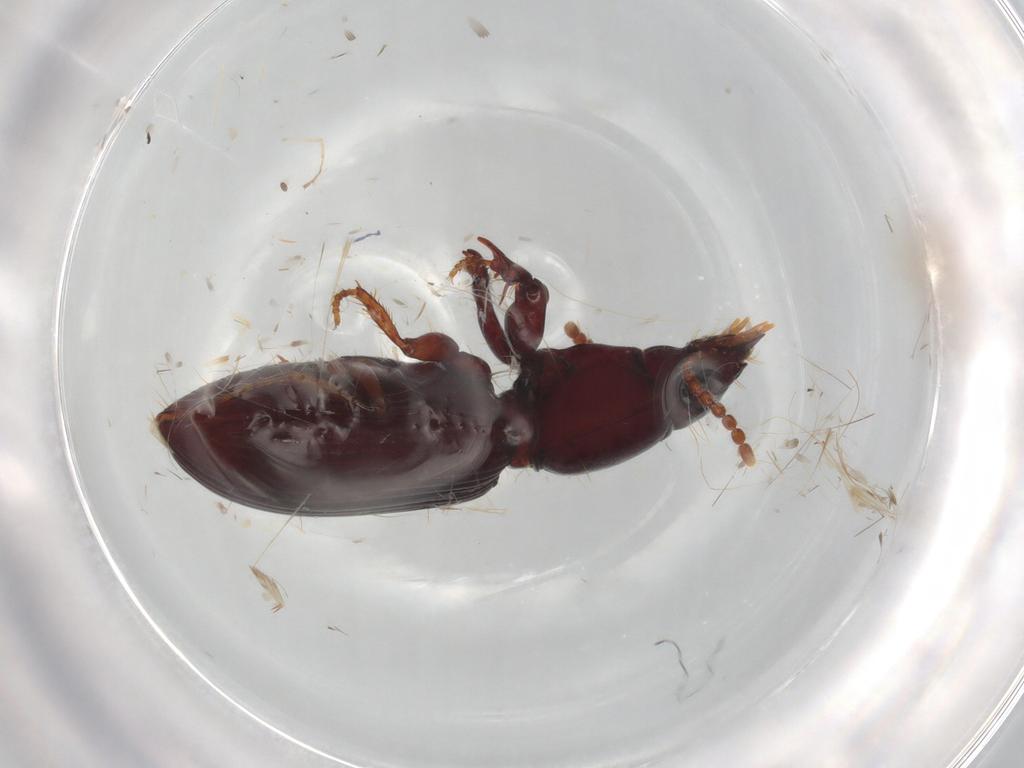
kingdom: Animalia
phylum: Arthropoda
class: Insecta
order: Coleoptera
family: Carabidae
